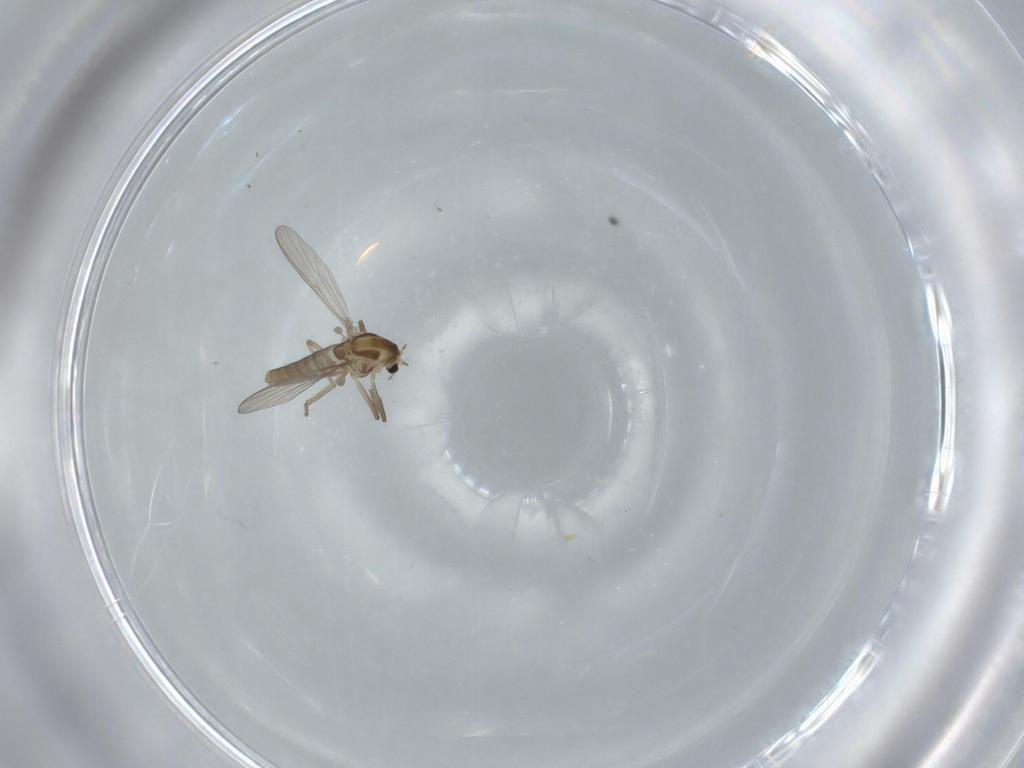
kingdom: Animalia
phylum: Arthropoda
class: Insecta
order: Diptera
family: Chironomidae
